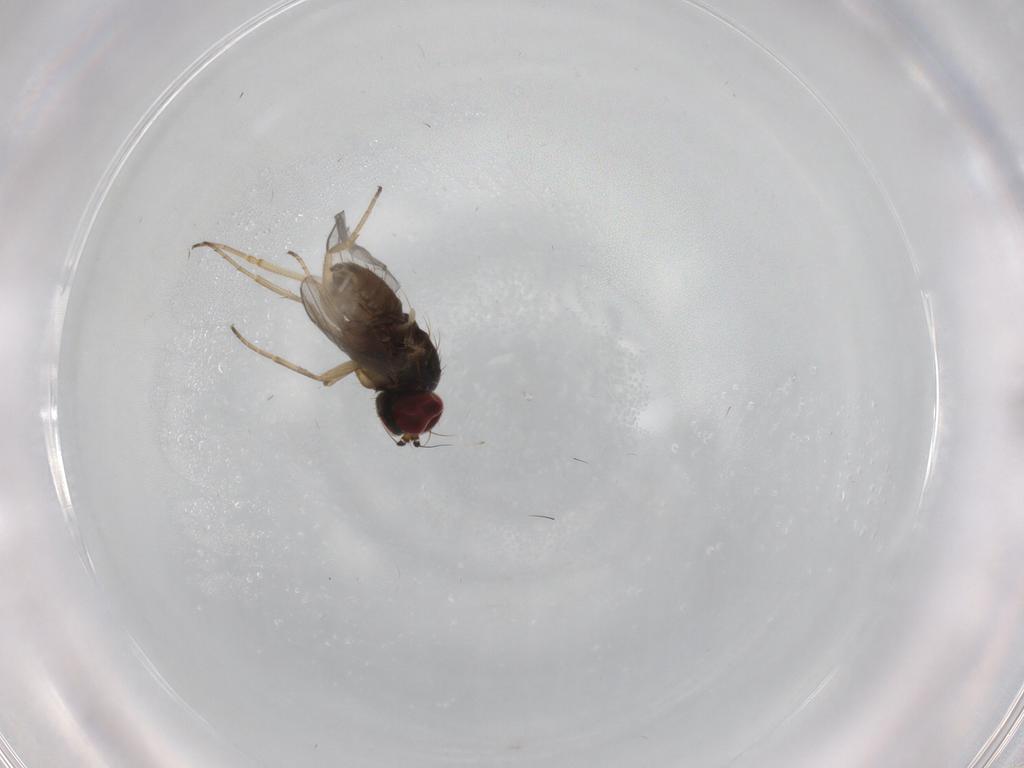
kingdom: Animalia
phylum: Arthropoda
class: Insecta
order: Diptera
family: Dolichopodidae
